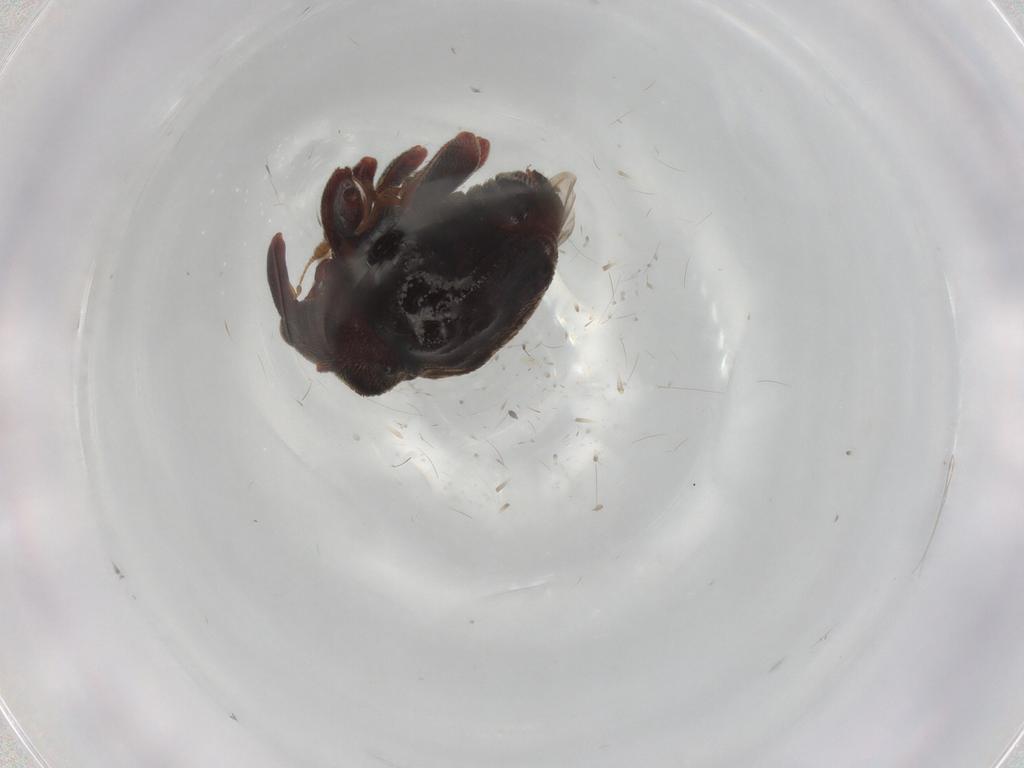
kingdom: Animalia
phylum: Arthropoda
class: Insecta
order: Coleoptera
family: Curculionidae
